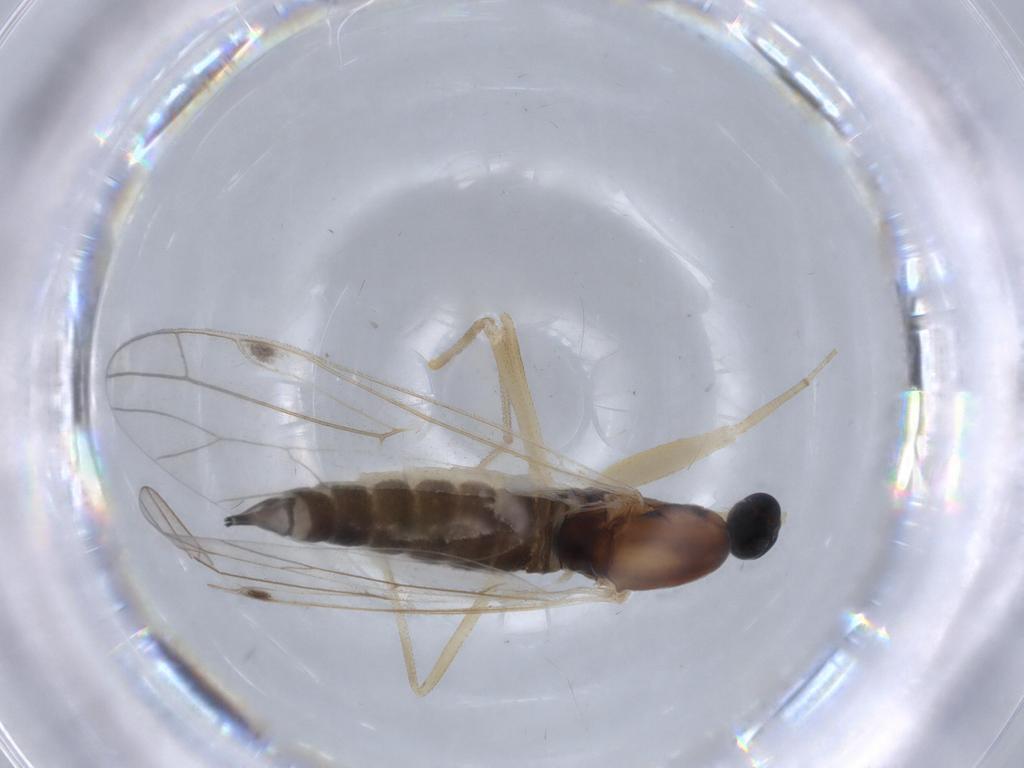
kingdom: Animalia
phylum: Arthropoda
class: Insecta
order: Diptera
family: Empididae
